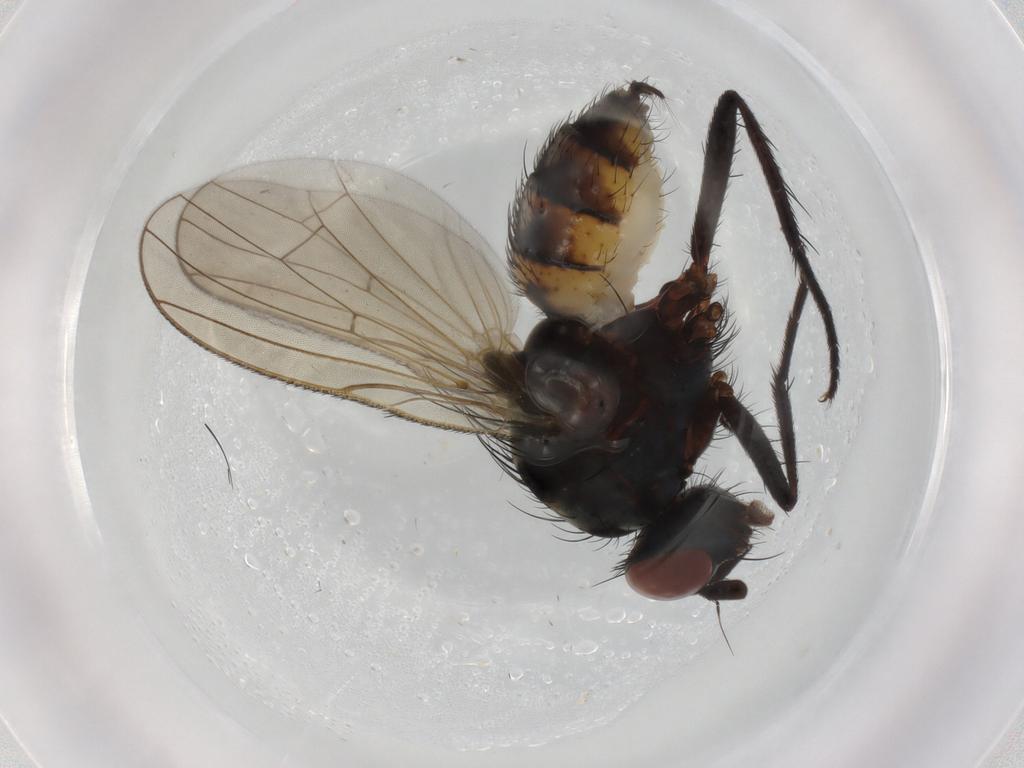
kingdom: Animalia
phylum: Arthropoda
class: Insecta
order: Diptera
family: Anthomyiidae
